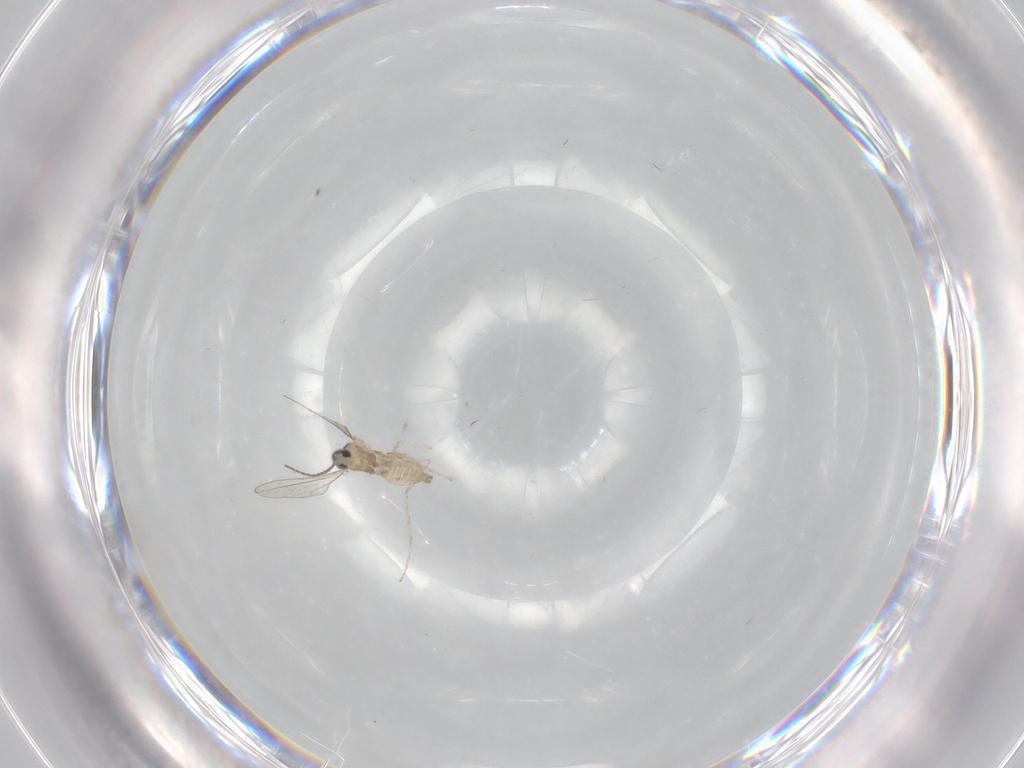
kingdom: Animalia
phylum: Arthropoda
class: Insecta
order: Diptera
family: Cecidomyiidae
